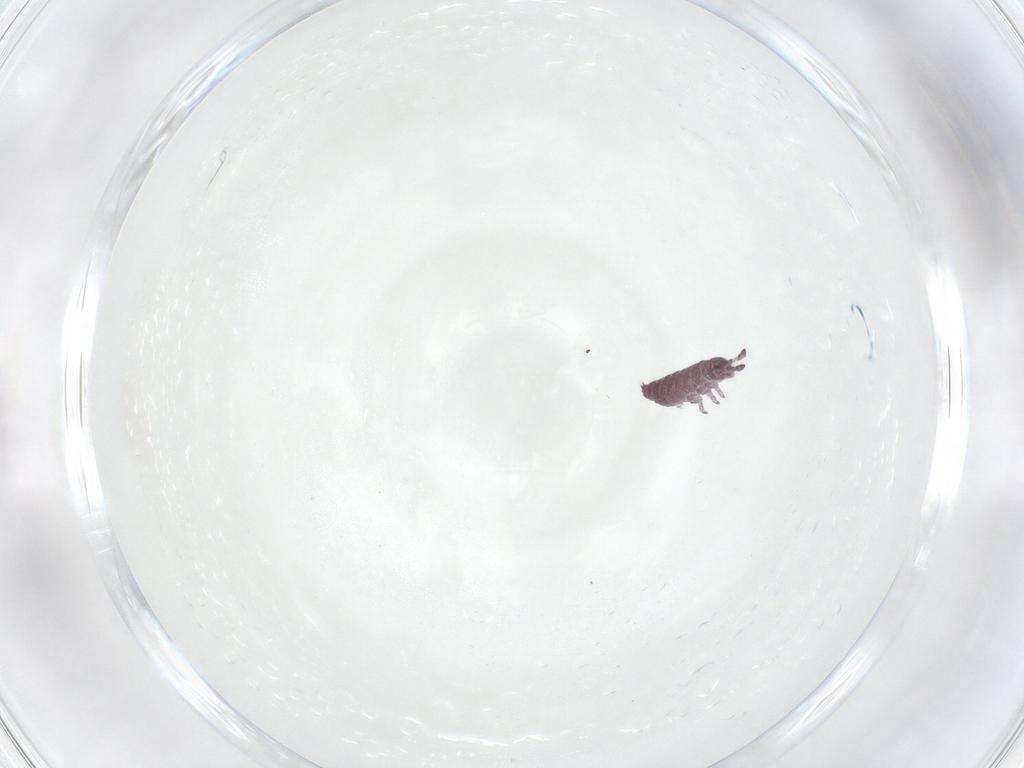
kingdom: Animalia
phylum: Arthropoda
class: Collembola
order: Poduromorpha
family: Hypogastruridae
